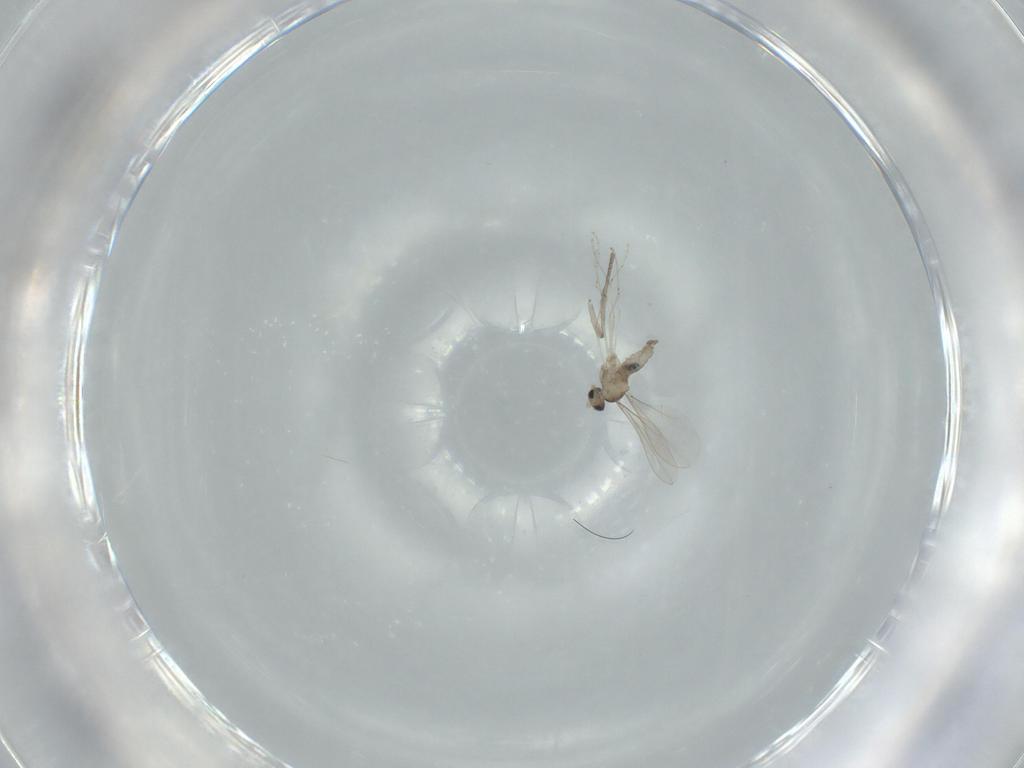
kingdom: Animalia
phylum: Arthropoda
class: Insecta
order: Diptera
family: Cecidomyiidae
